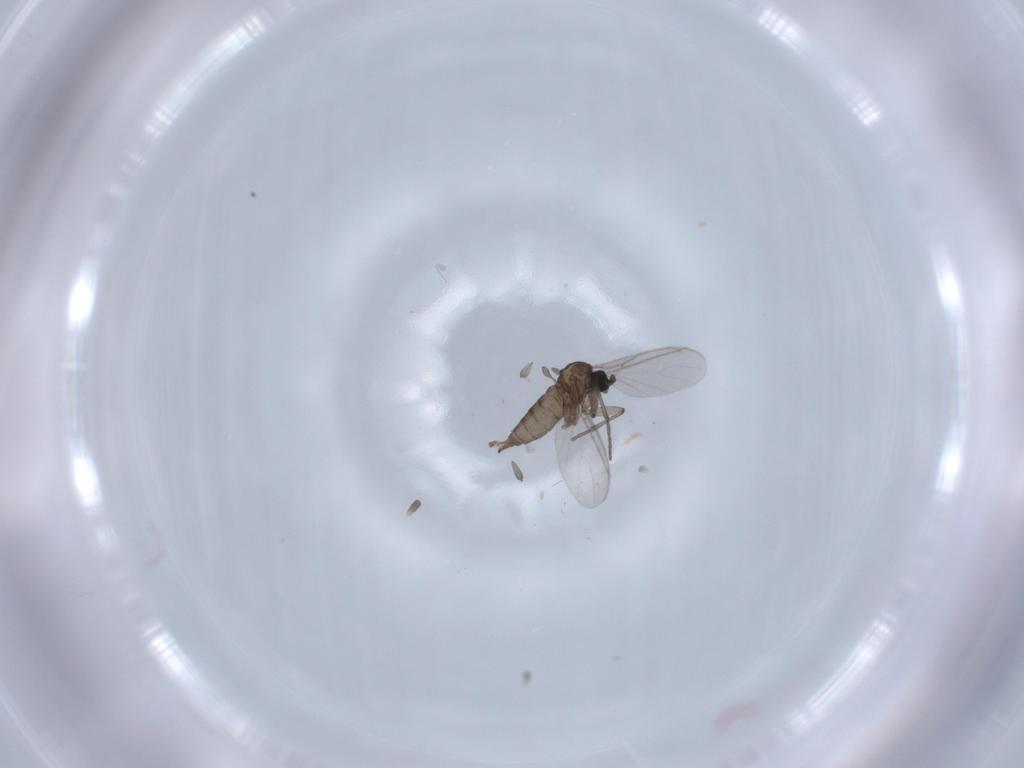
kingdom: Animalia
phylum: Arthropoda
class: Insecta
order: Diptera
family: Sciaridae
